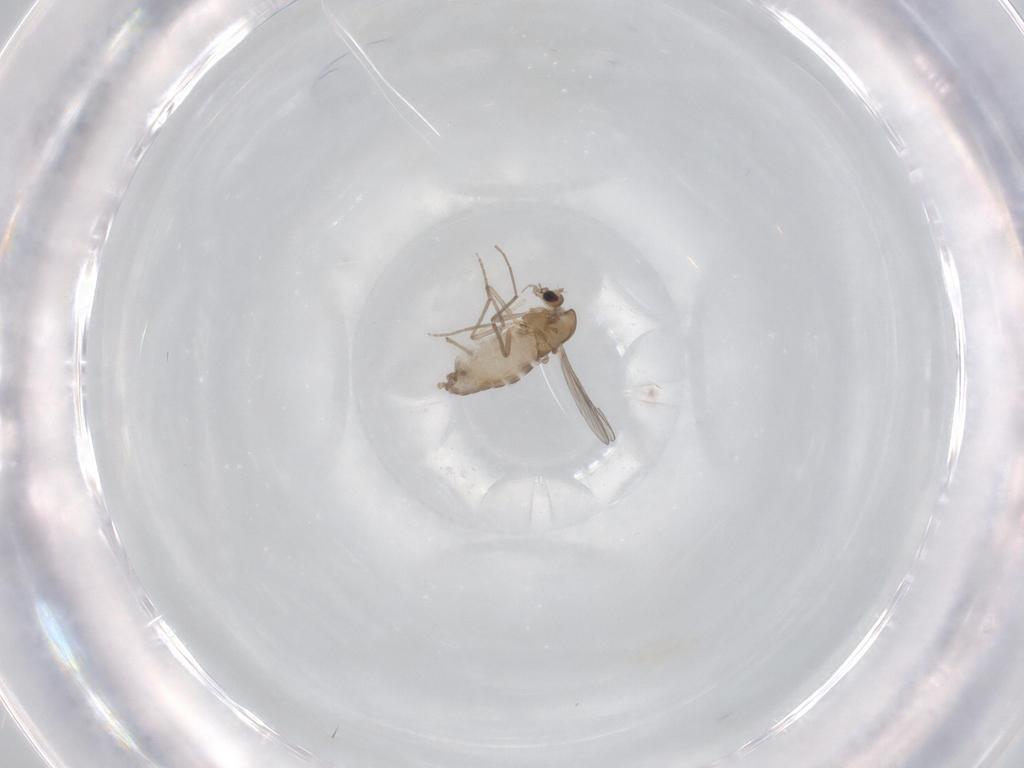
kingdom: Animalia
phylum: Arthropoda
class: Insecta
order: Diptera
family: Chironomidae
